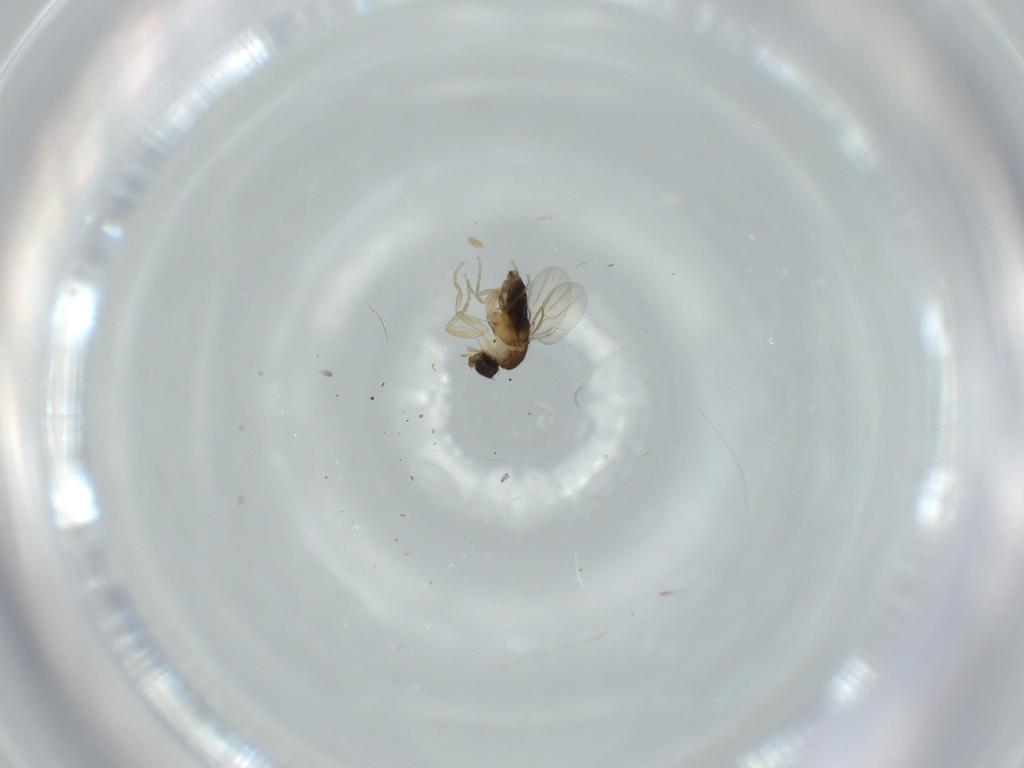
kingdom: Animalia
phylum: Arthropoda
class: Insecta
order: Diptera
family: Phoridae
